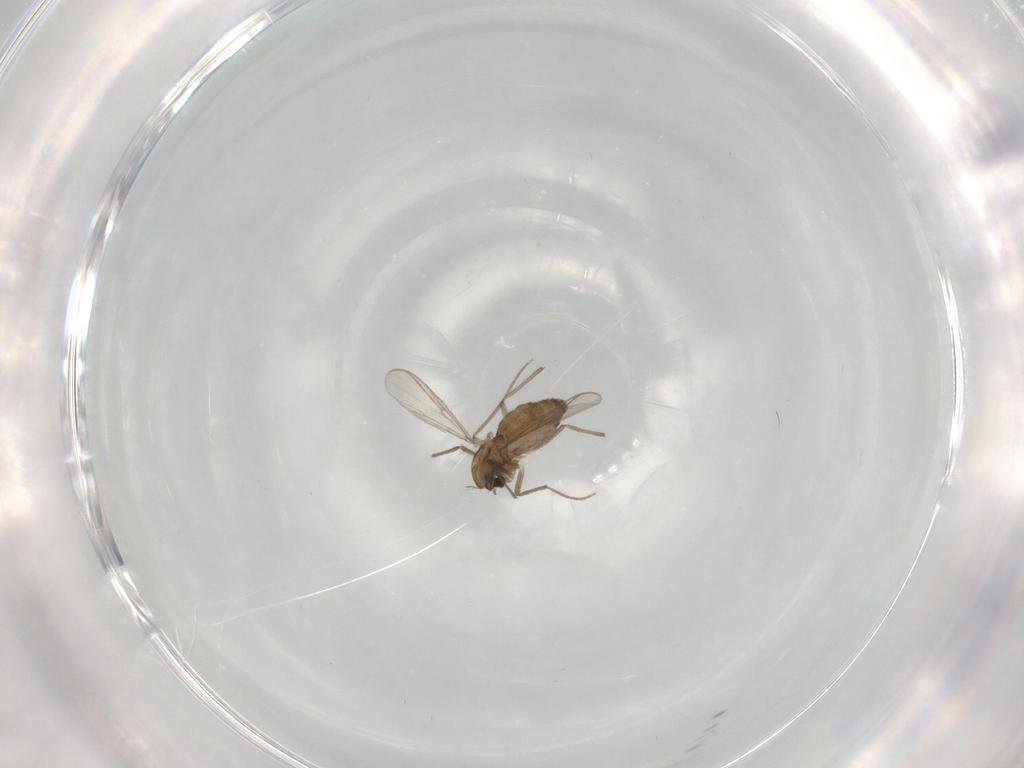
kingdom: Animalia
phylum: Arthropoda
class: Insecta
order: Diptera
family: Chironomidae
